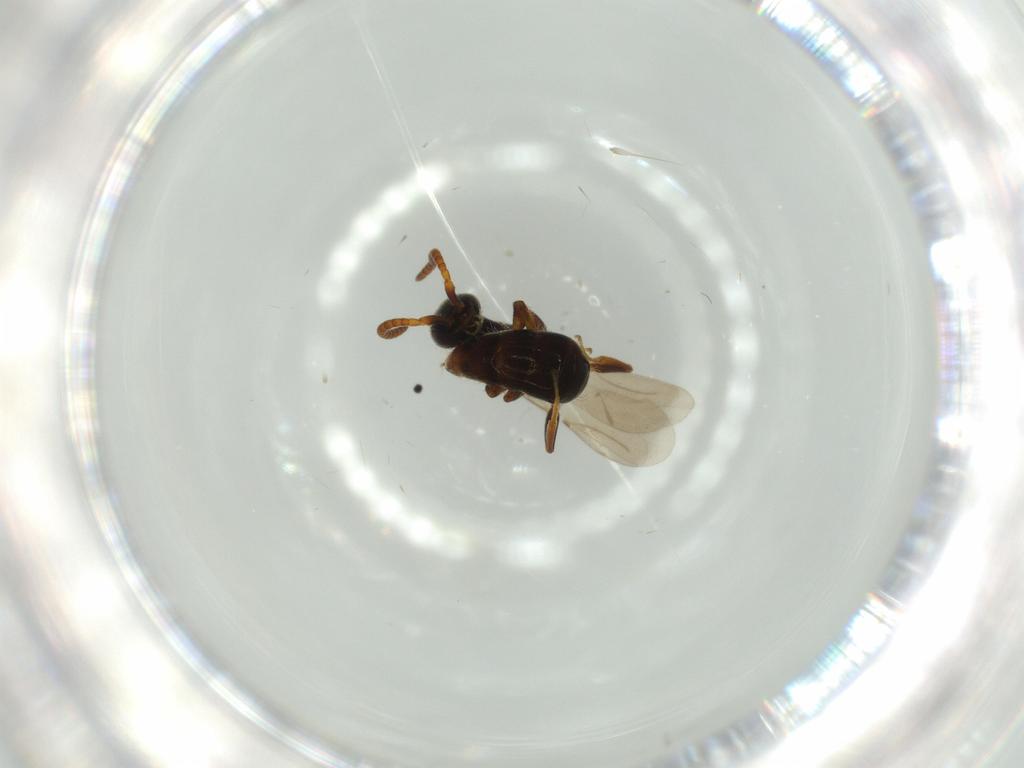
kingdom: Animalia
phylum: Arthropoda
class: Insecta
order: Hymenoptera
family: Bethylidae
